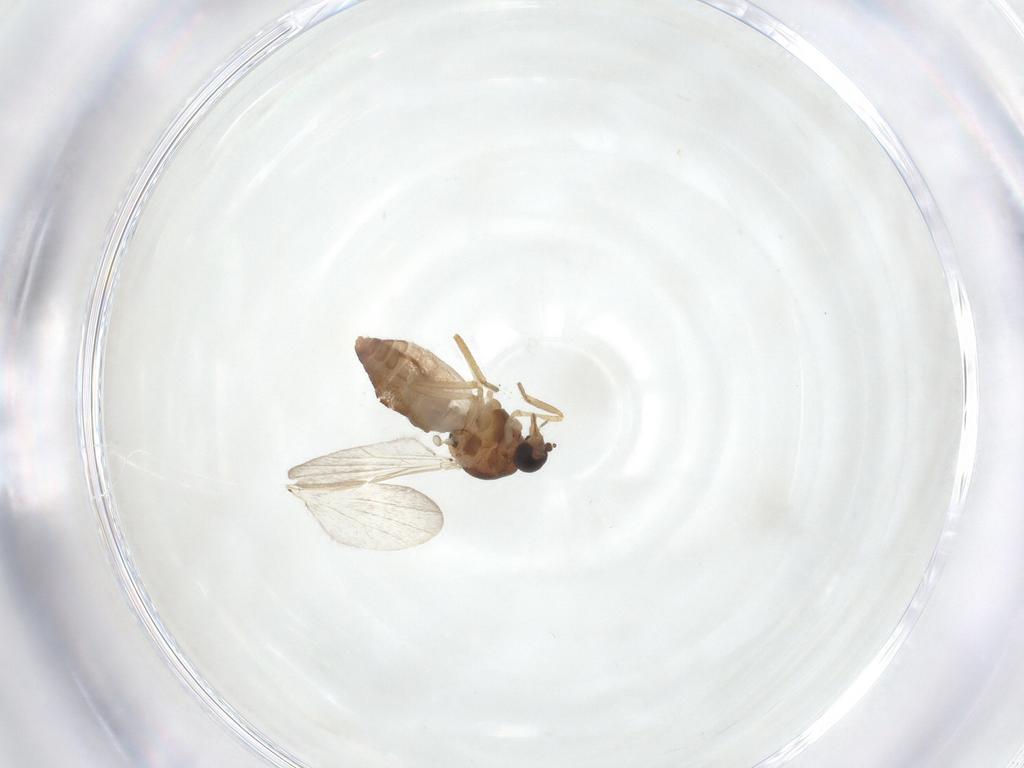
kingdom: Animalia
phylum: Arthropoda
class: Insecta
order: Diptera
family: Ceratopogonidae
